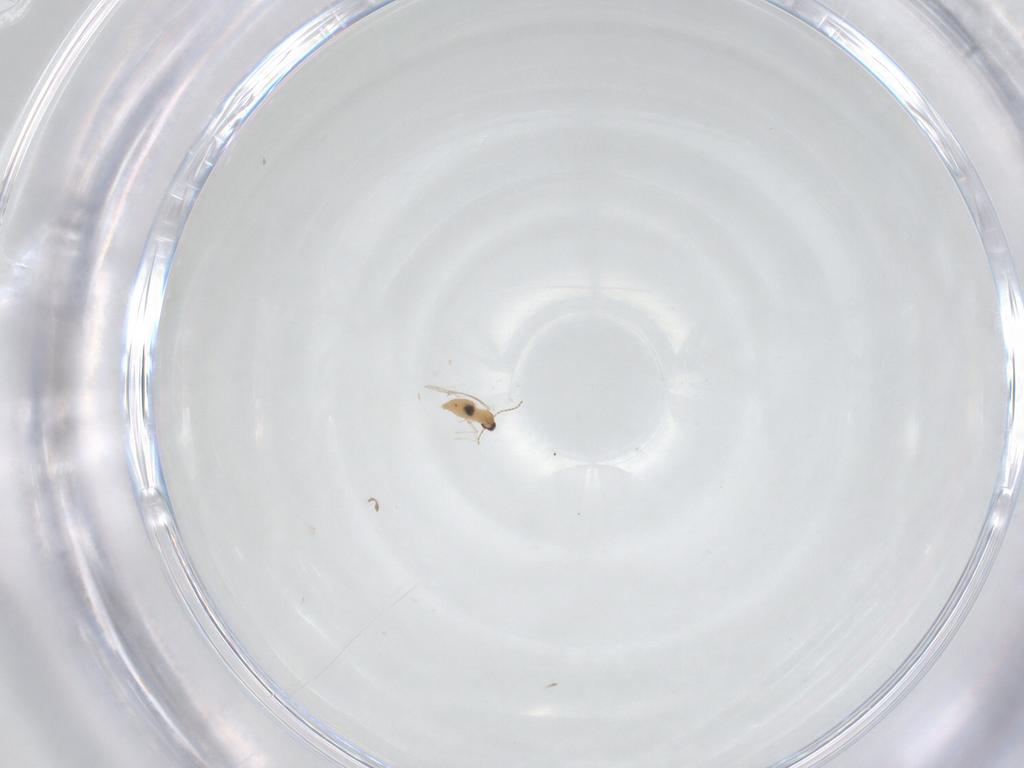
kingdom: Animalia
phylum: Arthropoda
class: Insecta
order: Diptera
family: Cecidomyiidae
